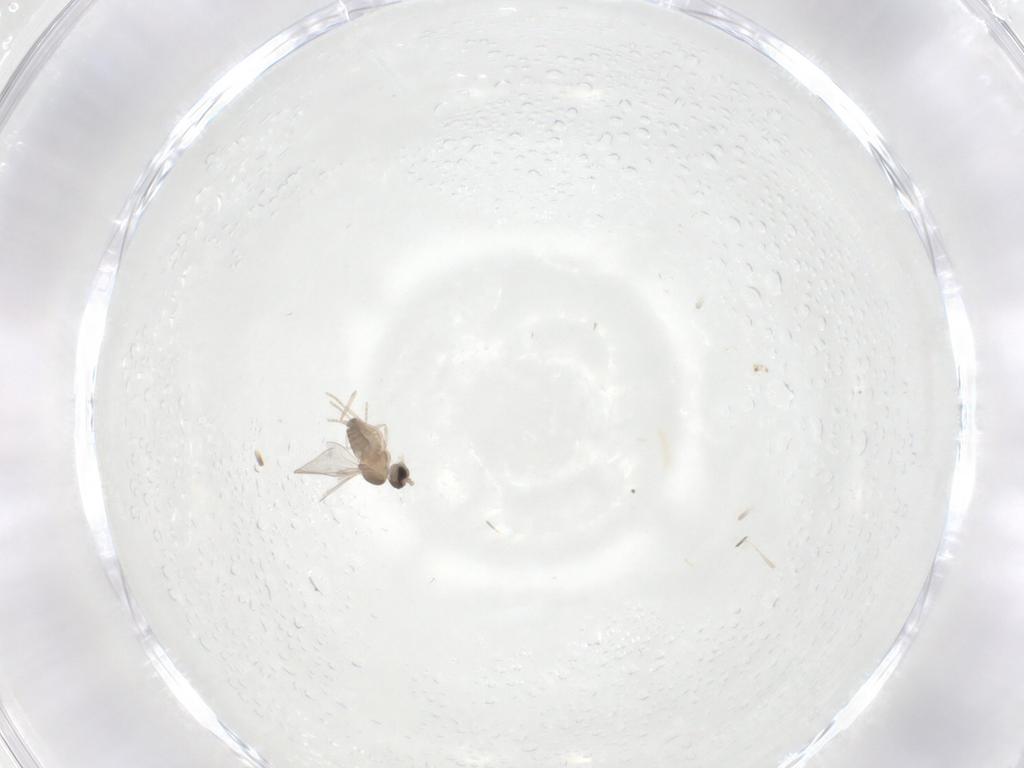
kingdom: Animalia
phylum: Arthropoda
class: Insecta
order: Diptera
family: Cecidomyiidae
